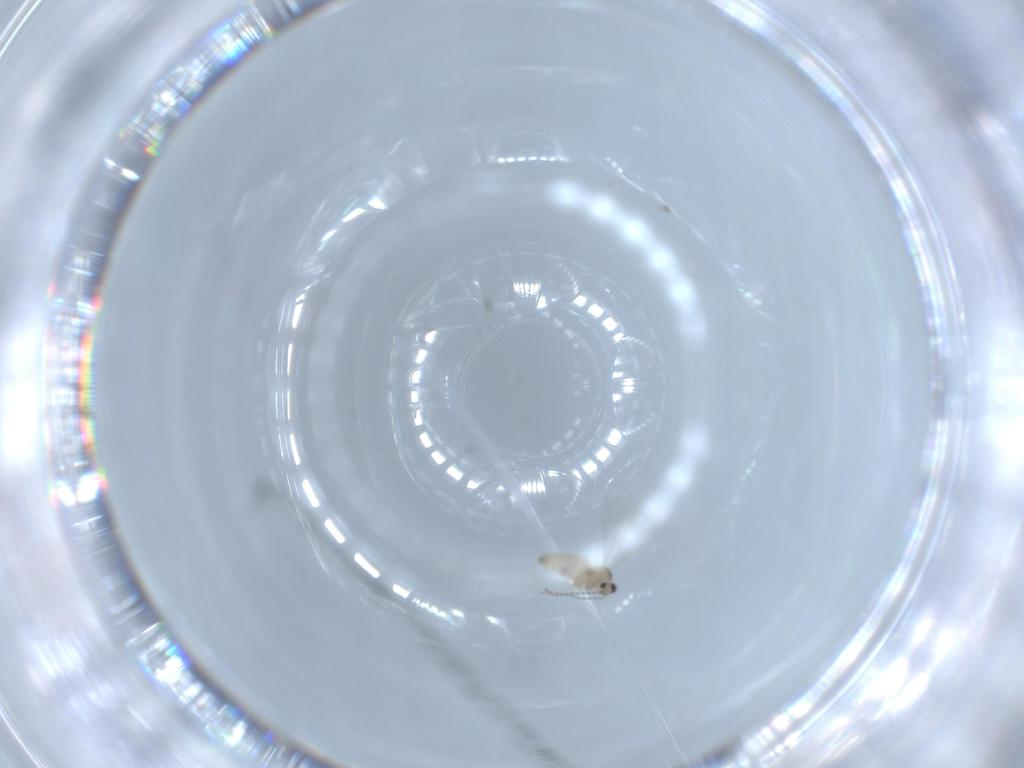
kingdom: Animalia
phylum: Arthropoda
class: Insecta
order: Diptera
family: Cecidomyiidae
